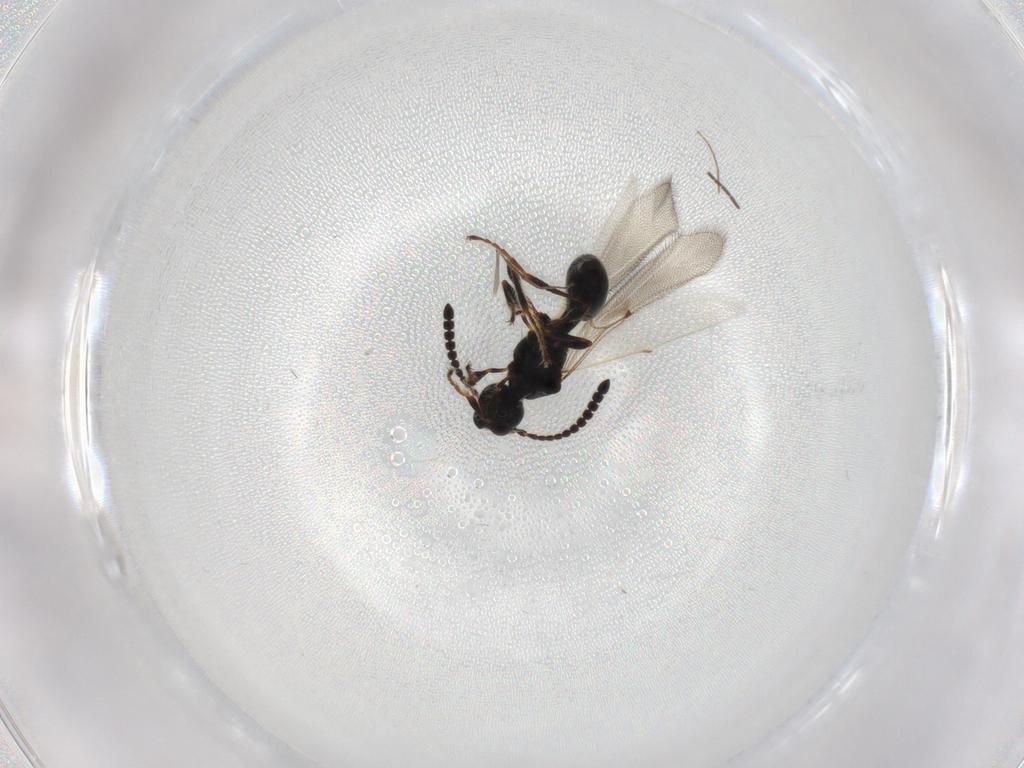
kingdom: Animalia
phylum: Arthropoda
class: Insecta
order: Hymenoptera
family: Diapriidae
